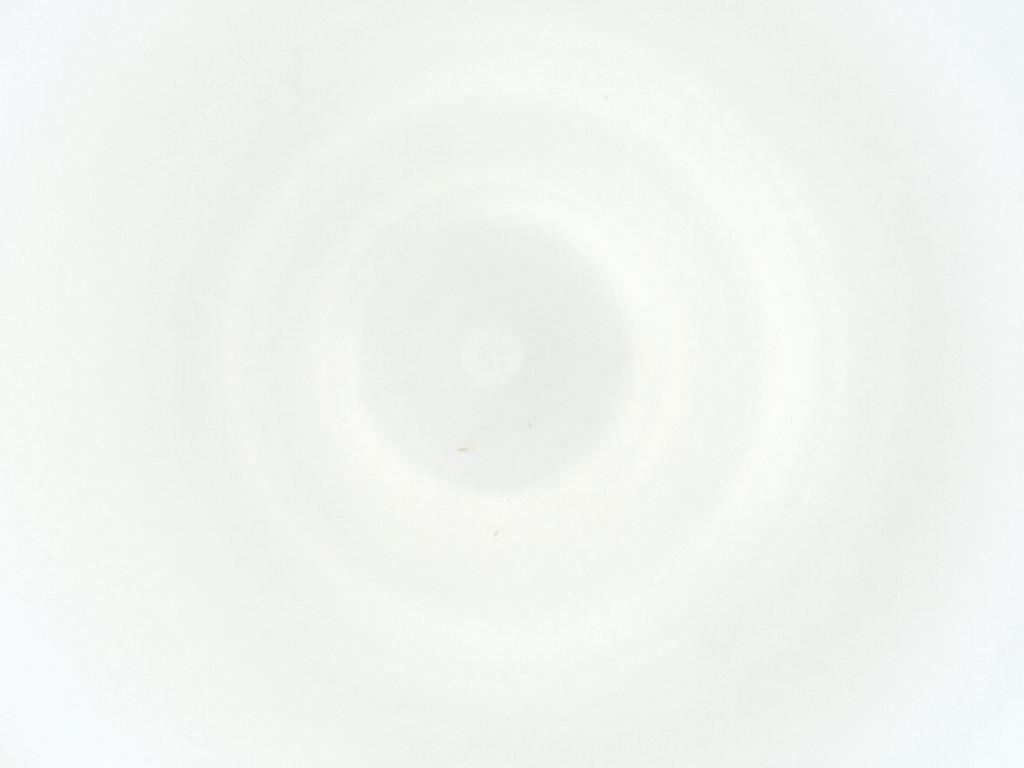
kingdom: Animalia
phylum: Arthropoda
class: Insecta
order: Hemiptera
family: Miridae
